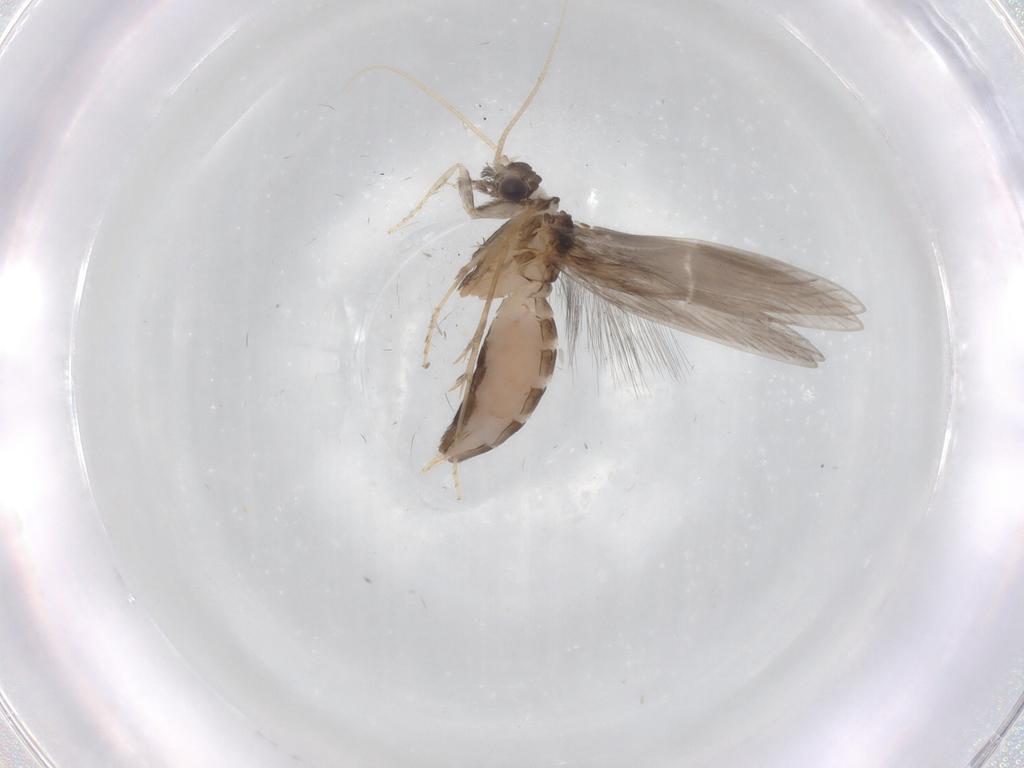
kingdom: Animalia
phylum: Arthropoda
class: Insecta
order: Trichoptera
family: Hydroptilidae
